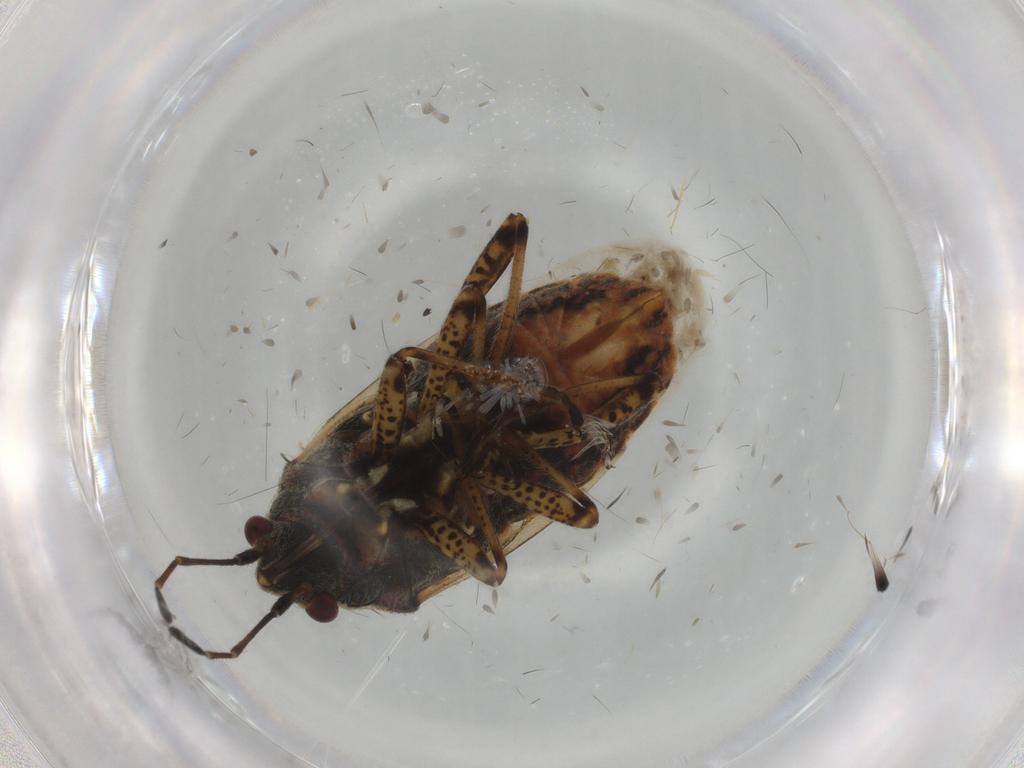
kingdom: Animalia
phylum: Arthropoda
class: Insecta
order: Hemiptera
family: Lygaeidae
